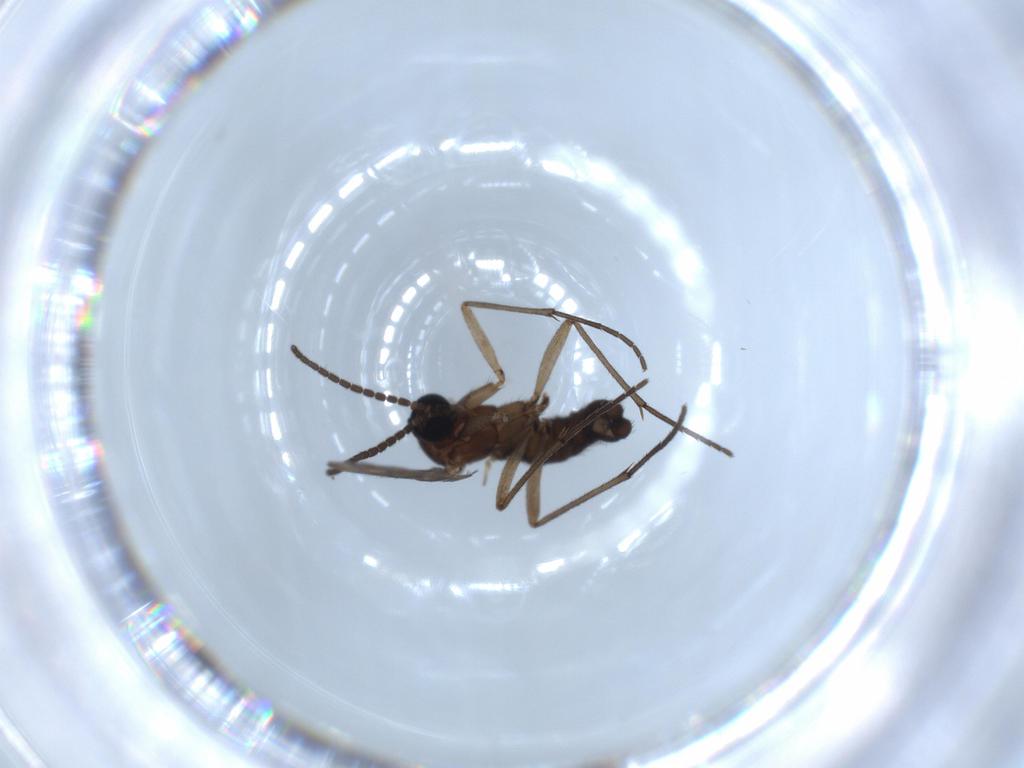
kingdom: Animalia
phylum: Arthropoda
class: Insecta
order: Diptera
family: Sciaridae
